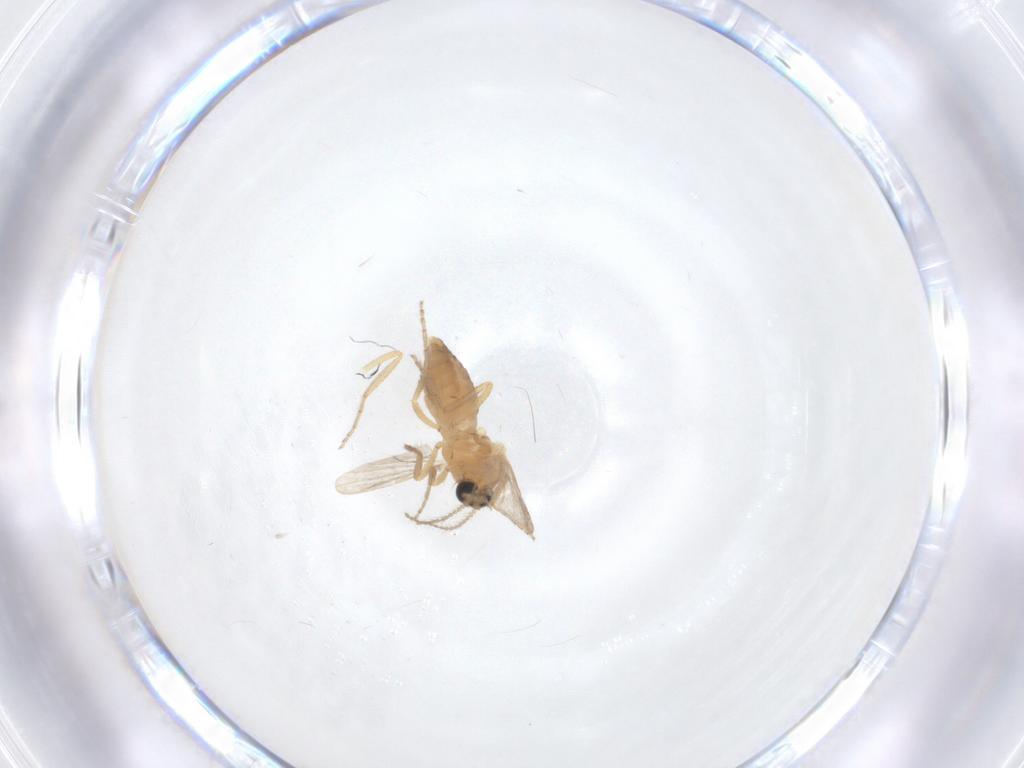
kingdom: Animalia
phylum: Arthropoda
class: Insecta
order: Diptera
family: Ceratopogonidae
